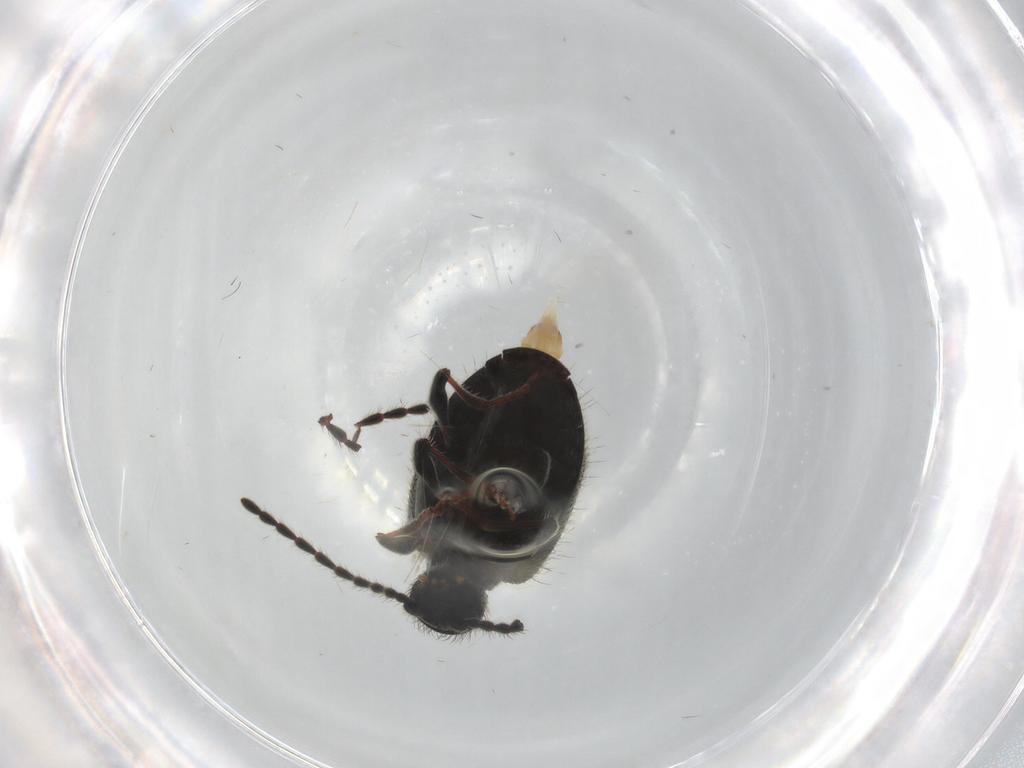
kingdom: Animalia
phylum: Arthropoda
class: Insecta
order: Coleoptera
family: Ptinidae
